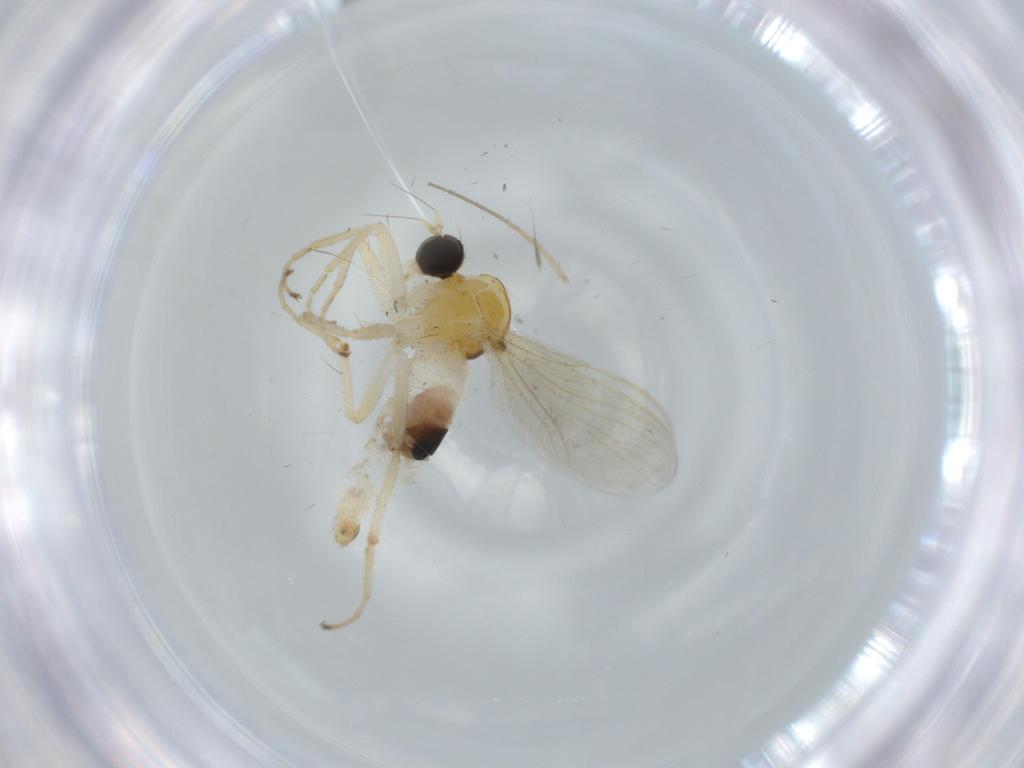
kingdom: Animalia
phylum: Arthropoda
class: Insecta
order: Diptera
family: Hybotidae
